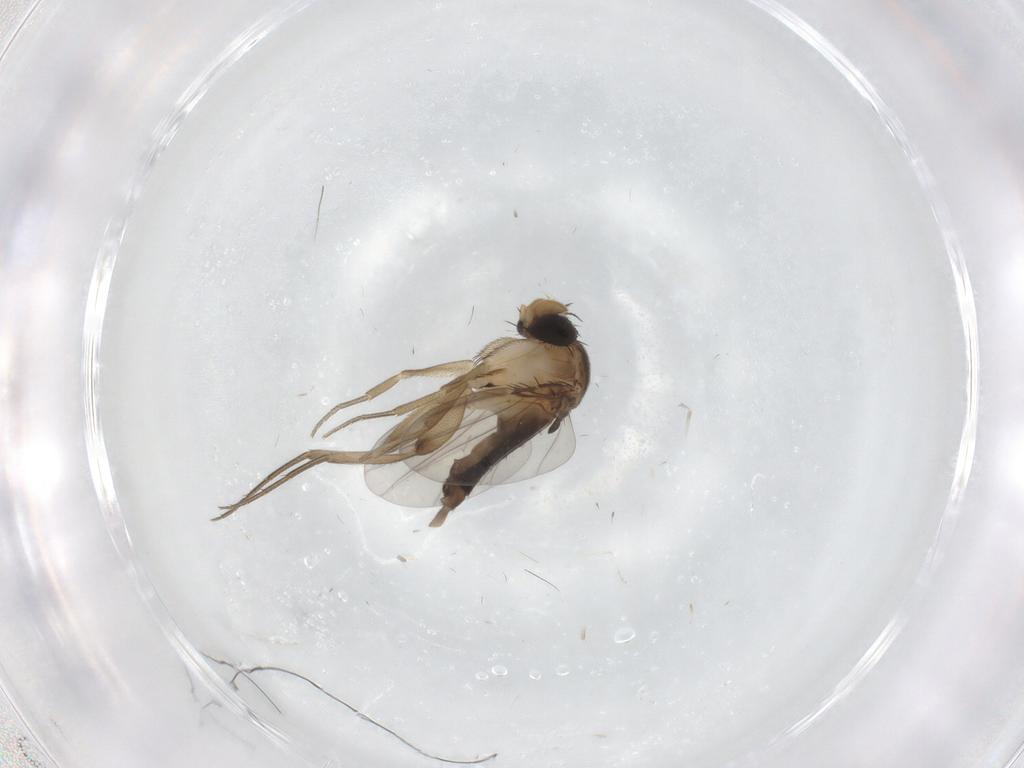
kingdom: Animalia
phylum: Arthropoda
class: Insecta
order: Diptera
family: Phoridae
